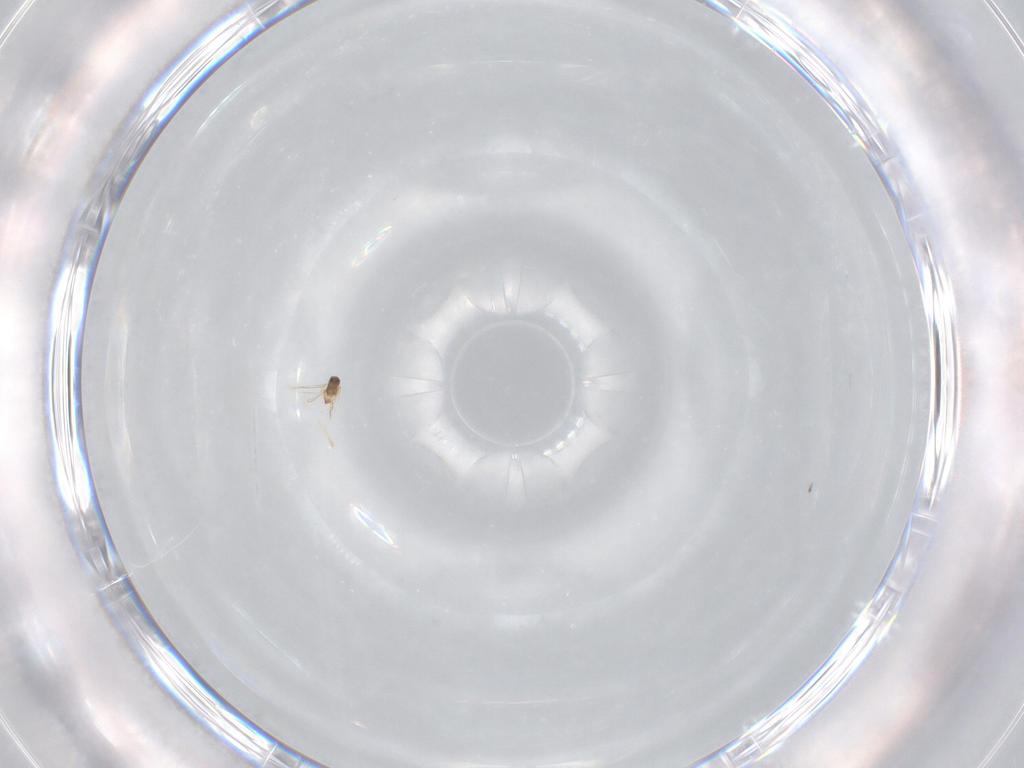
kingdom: Animalia
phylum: Arthropoda
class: Insecta
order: Hymenoptera
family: Scelionidae
